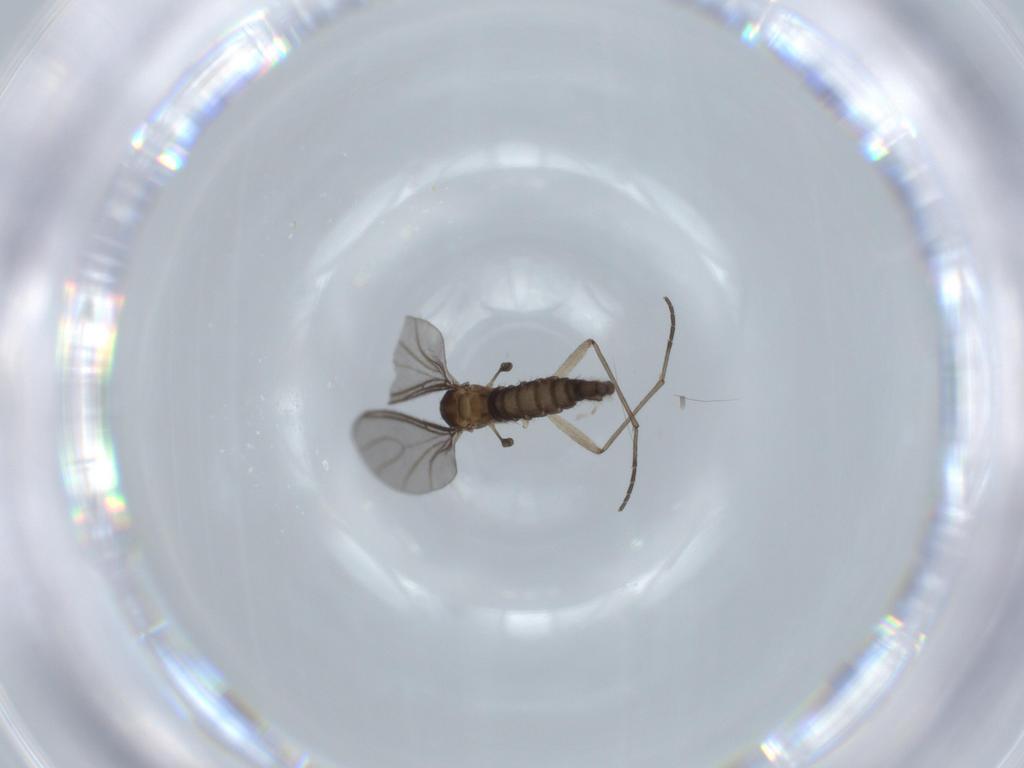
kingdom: Animalia
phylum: Arthropoda
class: Insecta
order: Diptera
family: Sciaridae
